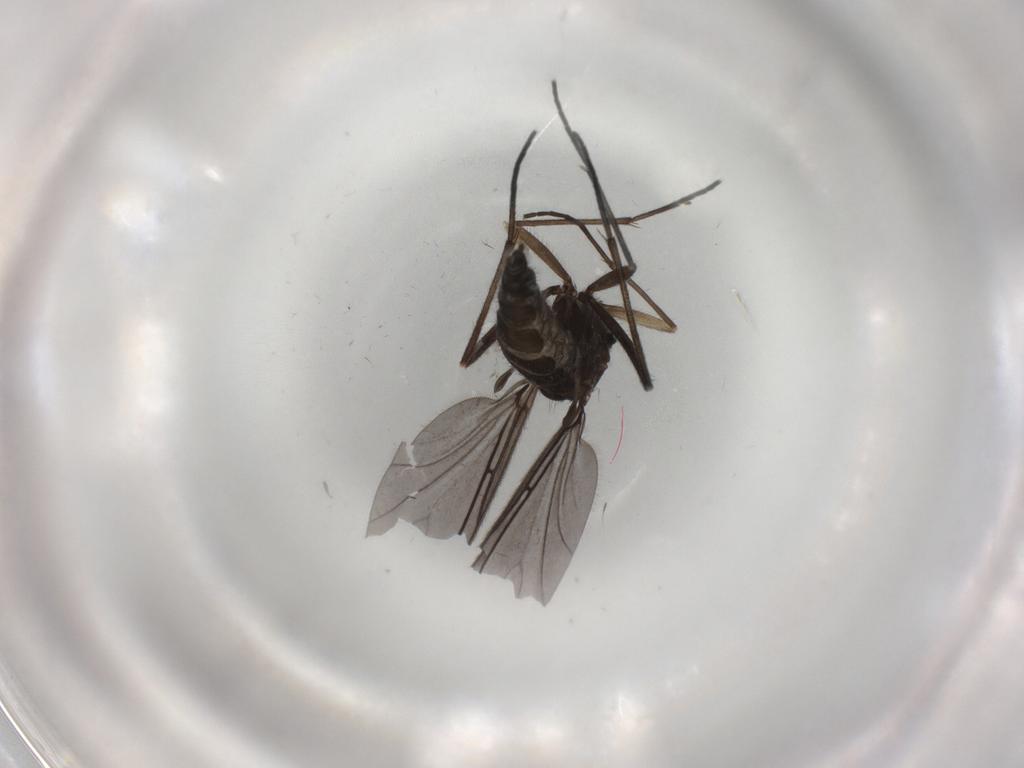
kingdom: Animalia
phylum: Arthropoda
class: Insecta
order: Diptera
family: Sciaridae
